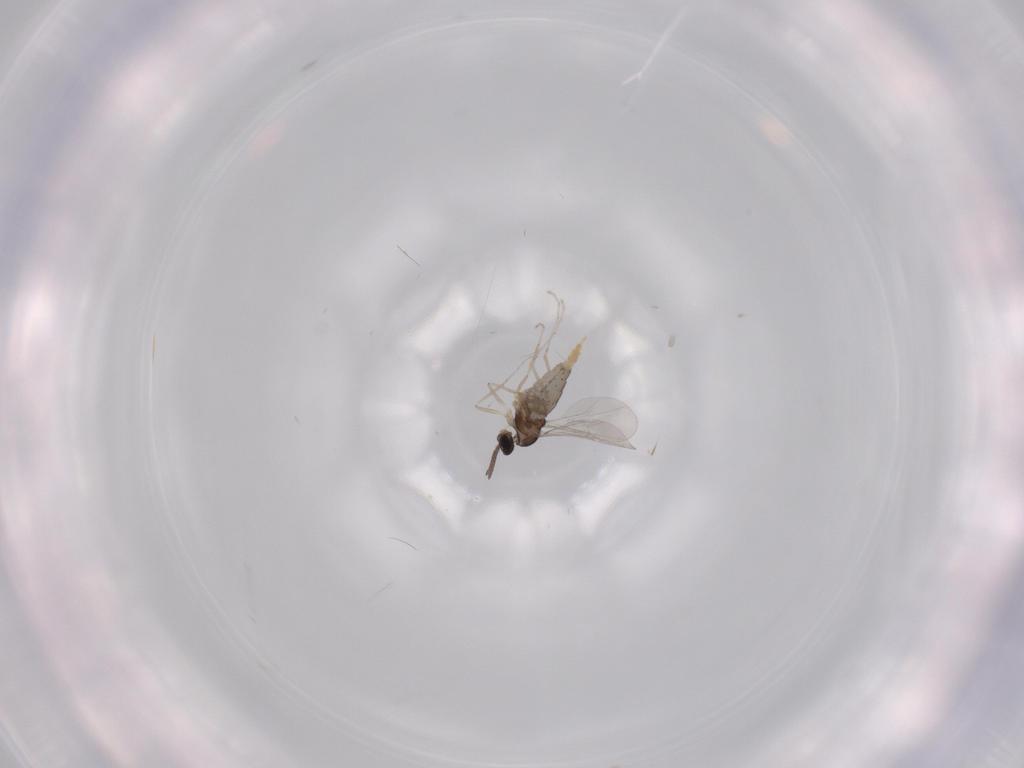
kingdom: Animalia
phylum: Arthropoda
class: Insecta
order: Diptera
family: Cecidomyiidae
